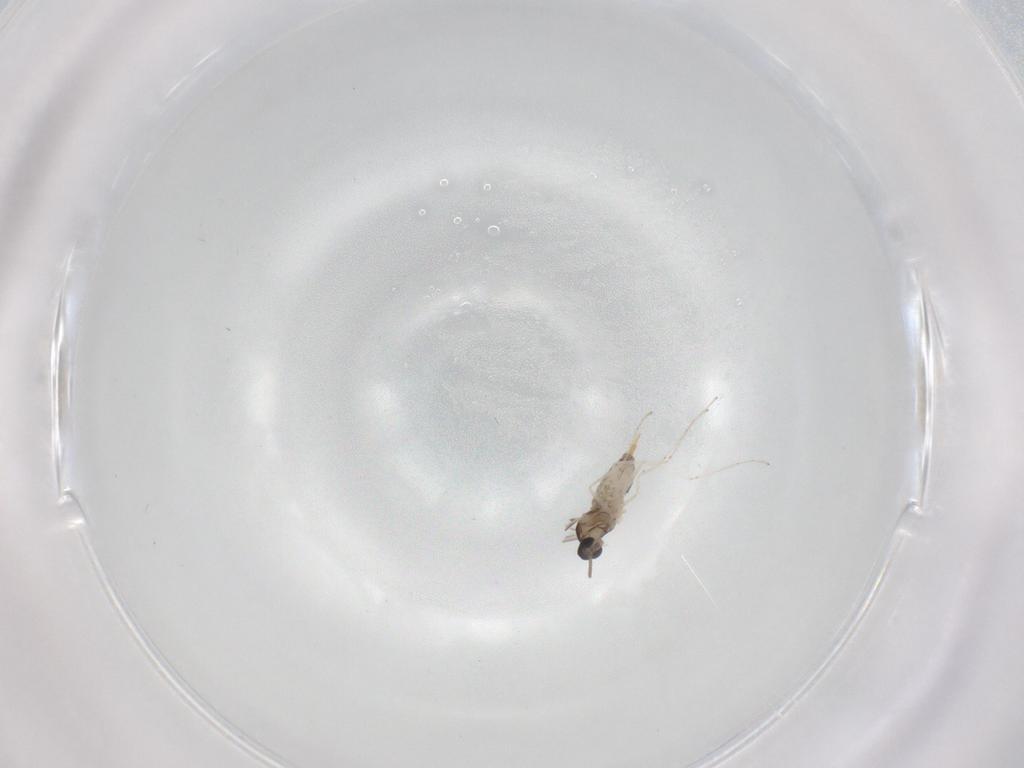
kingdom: Animalia
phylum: Arthropoda
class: Insecta
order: Diptera
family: Cecidomyiidae
